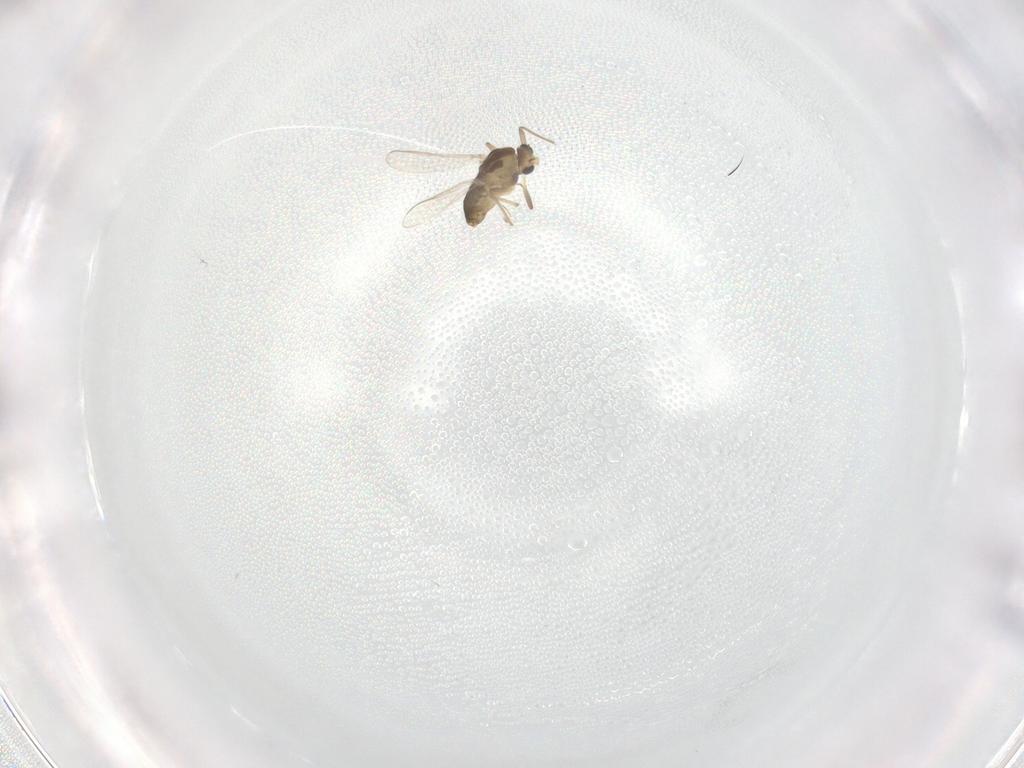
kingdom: Animalia
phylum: Arthropoda
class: Insecta
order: Diptera
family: Chironomidae
